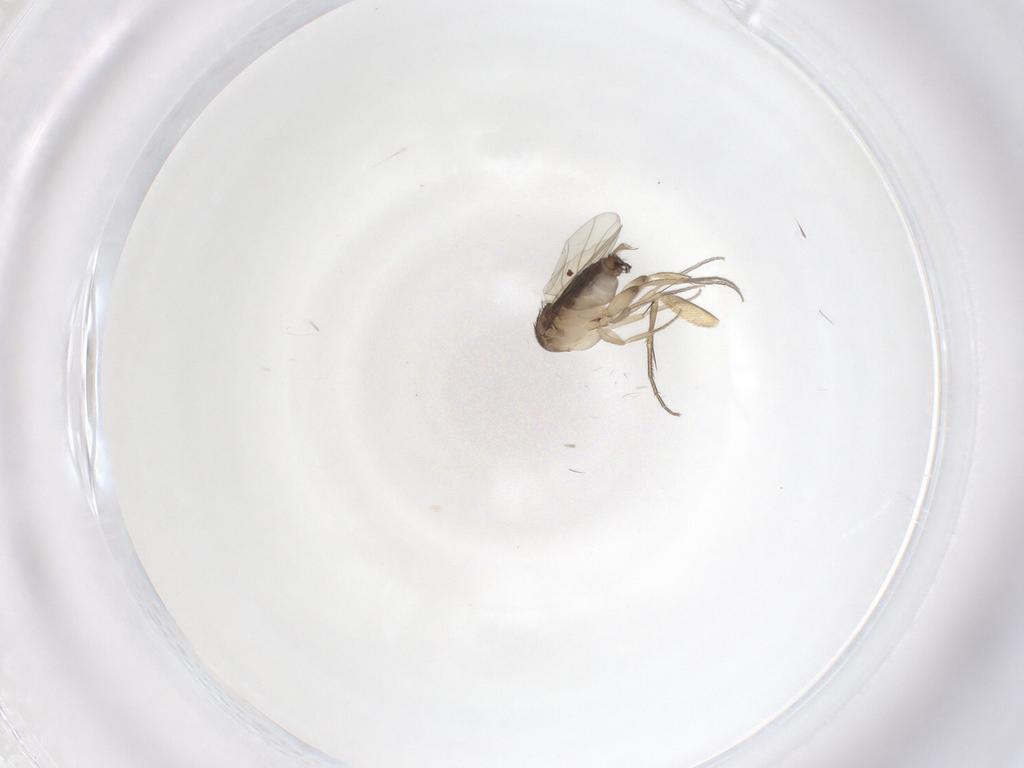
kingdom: Animalia
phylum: Arthropoda
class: Insecta
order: Diptera
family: Phoridae
